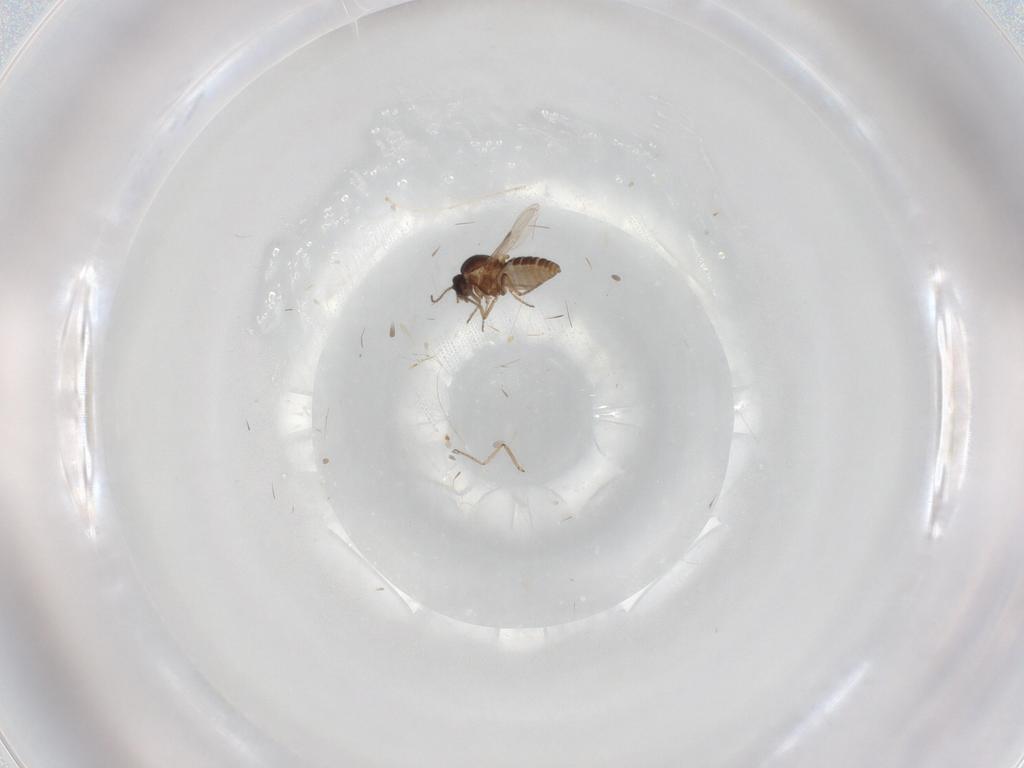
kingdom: Animalia
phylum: Arthropoda
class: Insecta
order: Diptera
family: Ceratopogonidae
